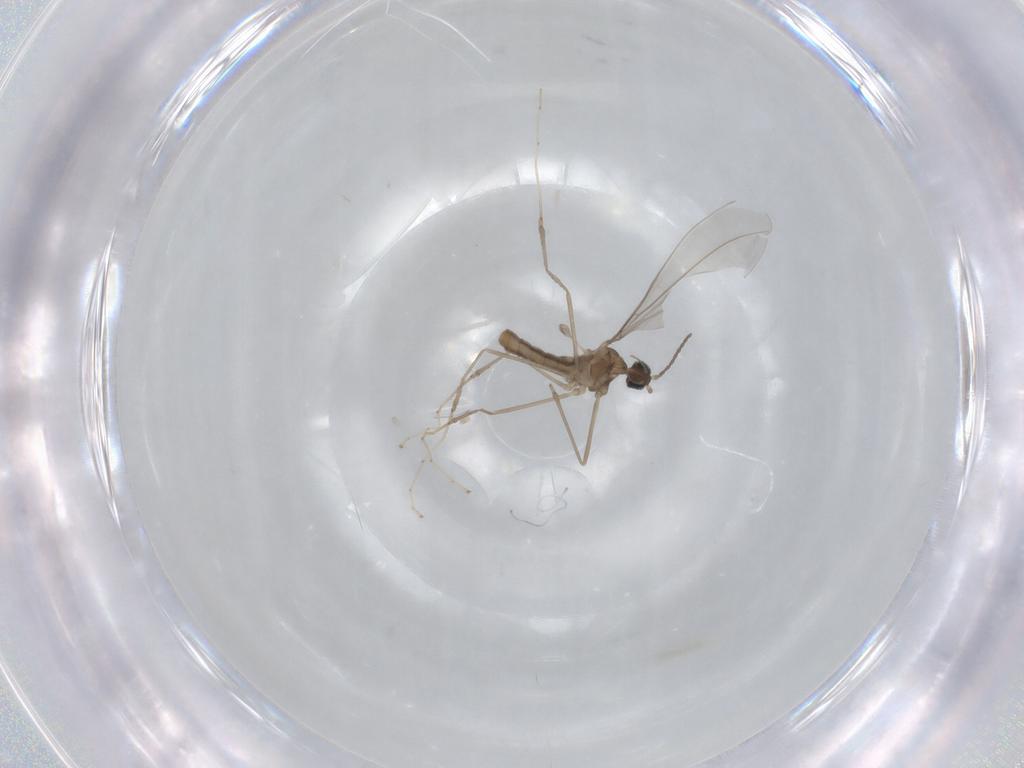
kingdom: Animalia
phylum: Arthropoda
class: Insecta
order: Diptera
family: Cecidomyiidae
